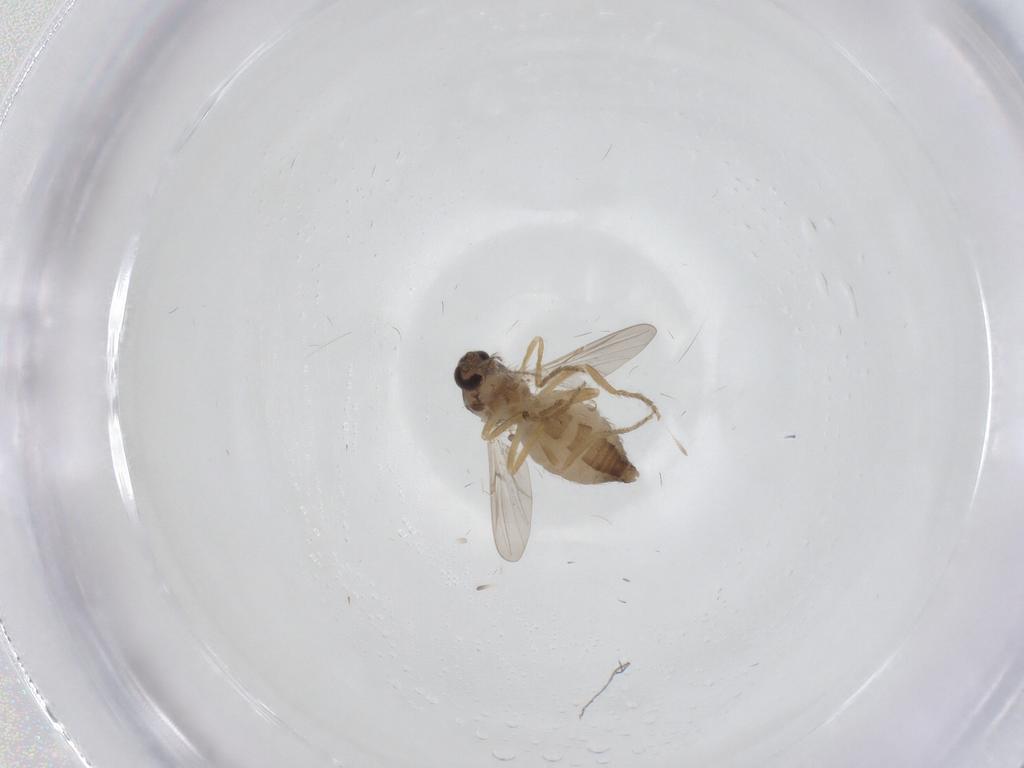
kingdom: Animalia
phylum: Arthropoda
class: Insecta
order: Diptera
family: Ceratopogonidae
